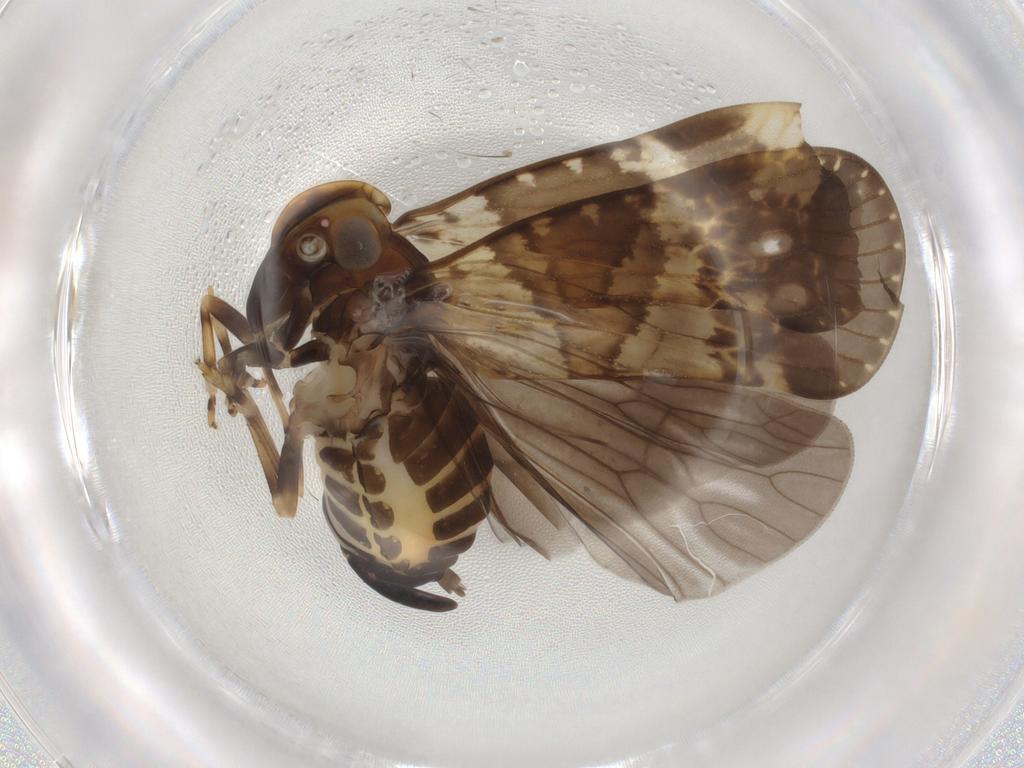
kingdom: Animalia
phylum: Arthropoda
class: Insecta
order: Hemiptera
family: Cixiidae
